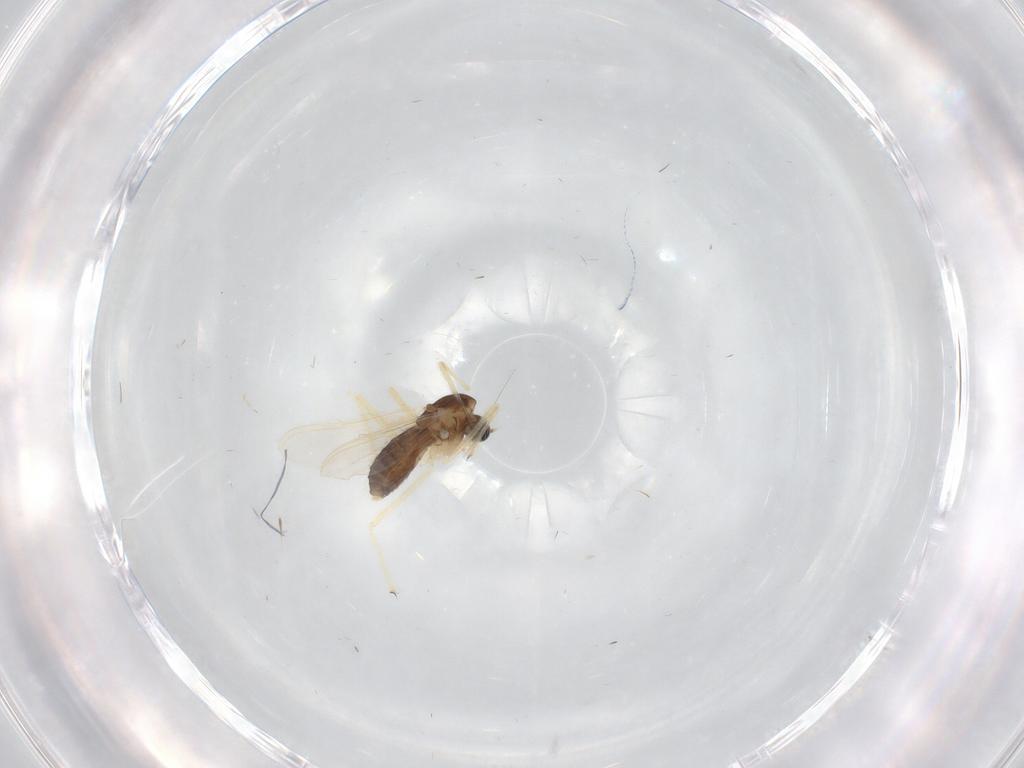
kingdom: Animalia
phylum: Arthropoda
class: Insecta
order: Diptera
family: Chironomidae
